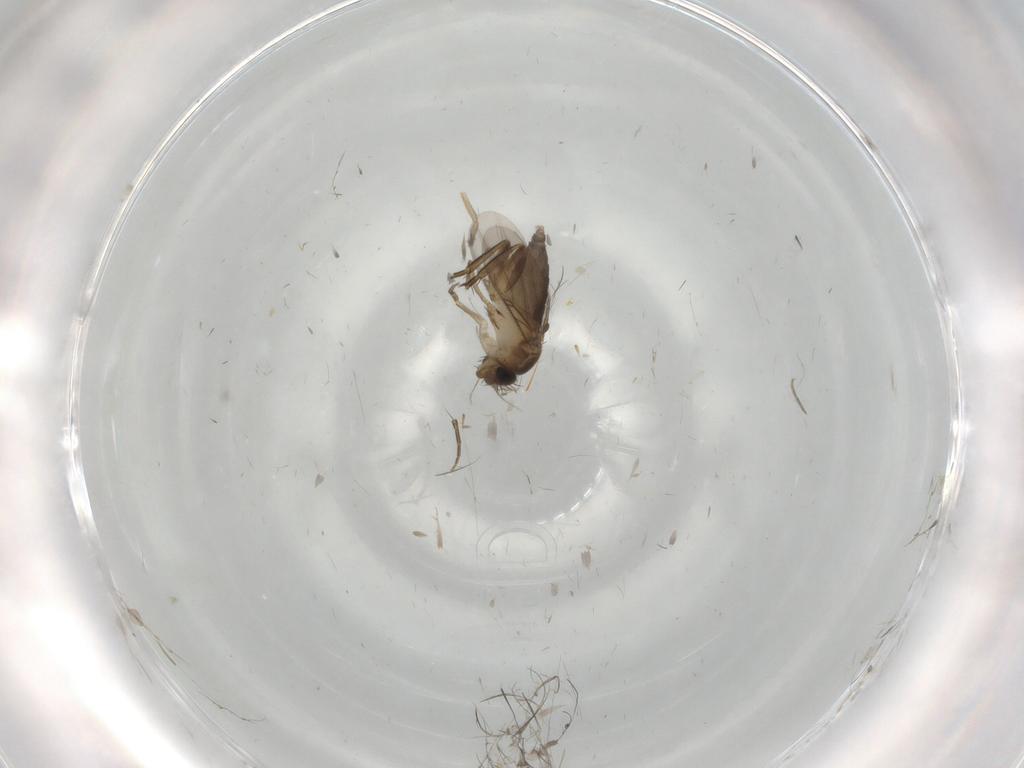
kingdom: Animalia
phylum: Arthropoda
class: Insecta
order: Diptera
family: Phoridae
